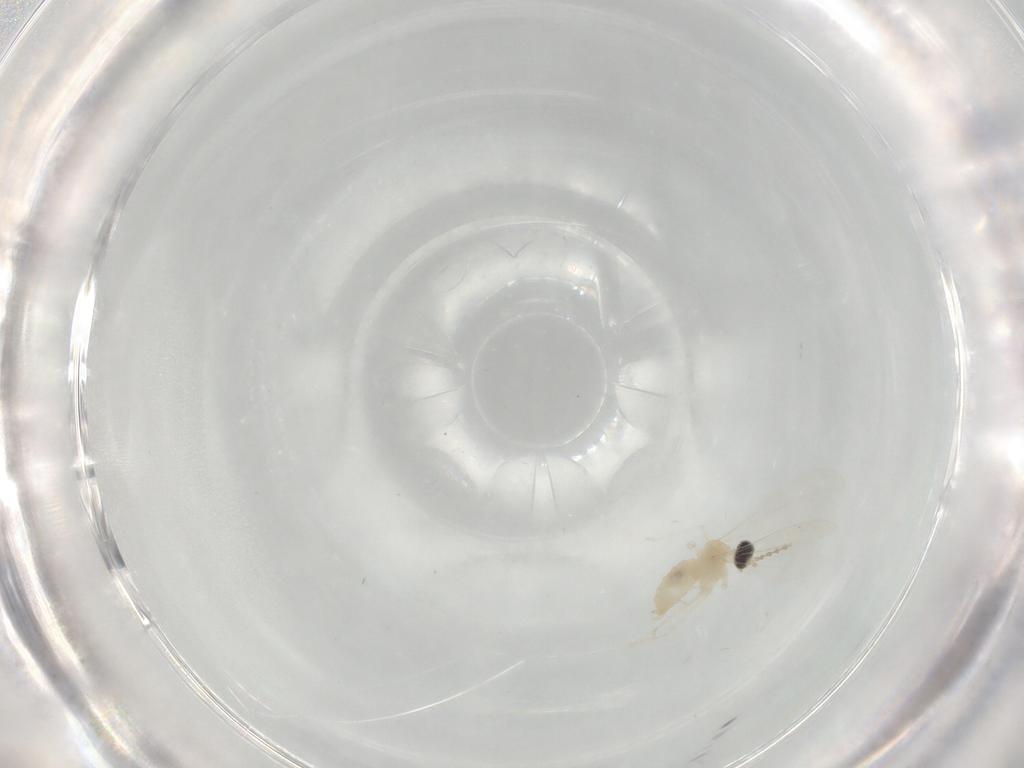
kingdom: Animalia
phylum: Arthropoda
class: Insecta
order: Diptera
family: Cecidomyiidae
